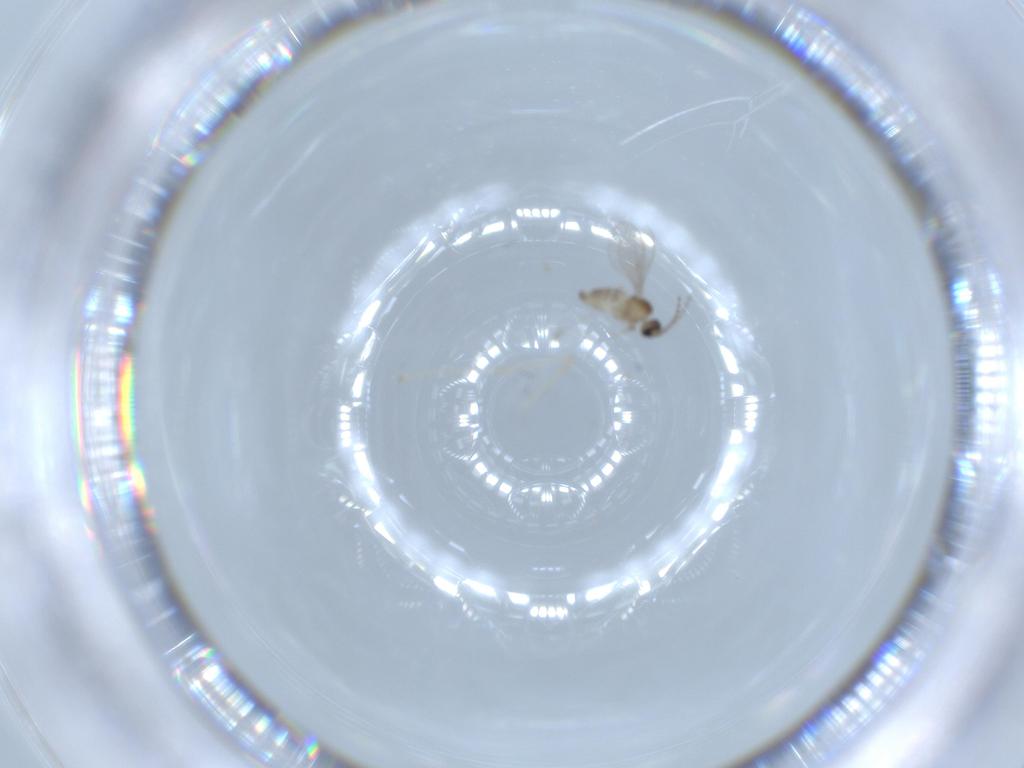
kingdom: Animalia
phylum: Arthropoda
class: Insecta
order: Diptera
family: Cecidomyiidae
